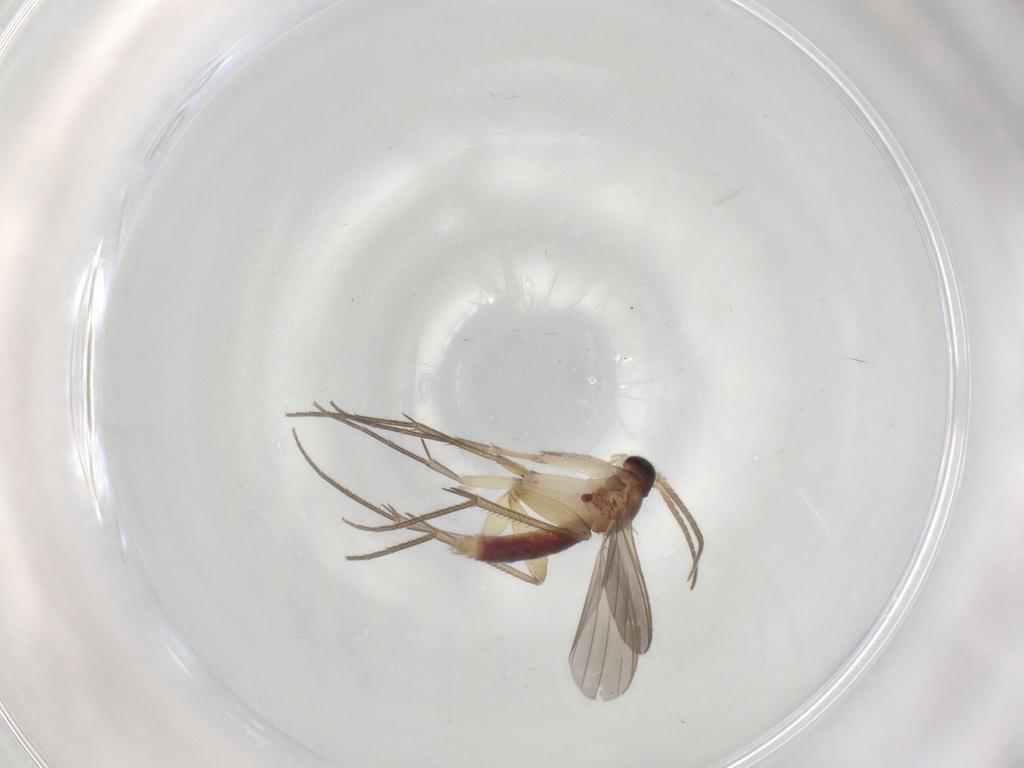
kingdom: Animalia
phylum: Arthropoda
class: Insecta
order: Diptera
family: Mycetophilidae
